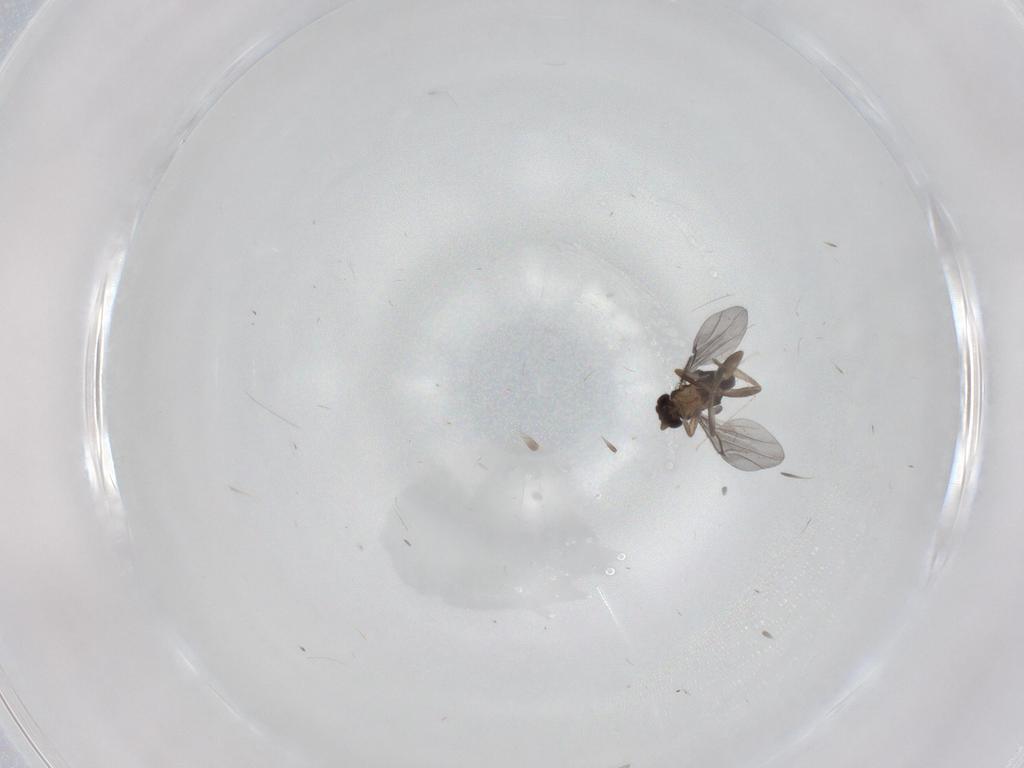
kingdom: Animalia
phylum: Arthropoda
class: Insecta
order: Diptera
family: Cecidomyiidae
